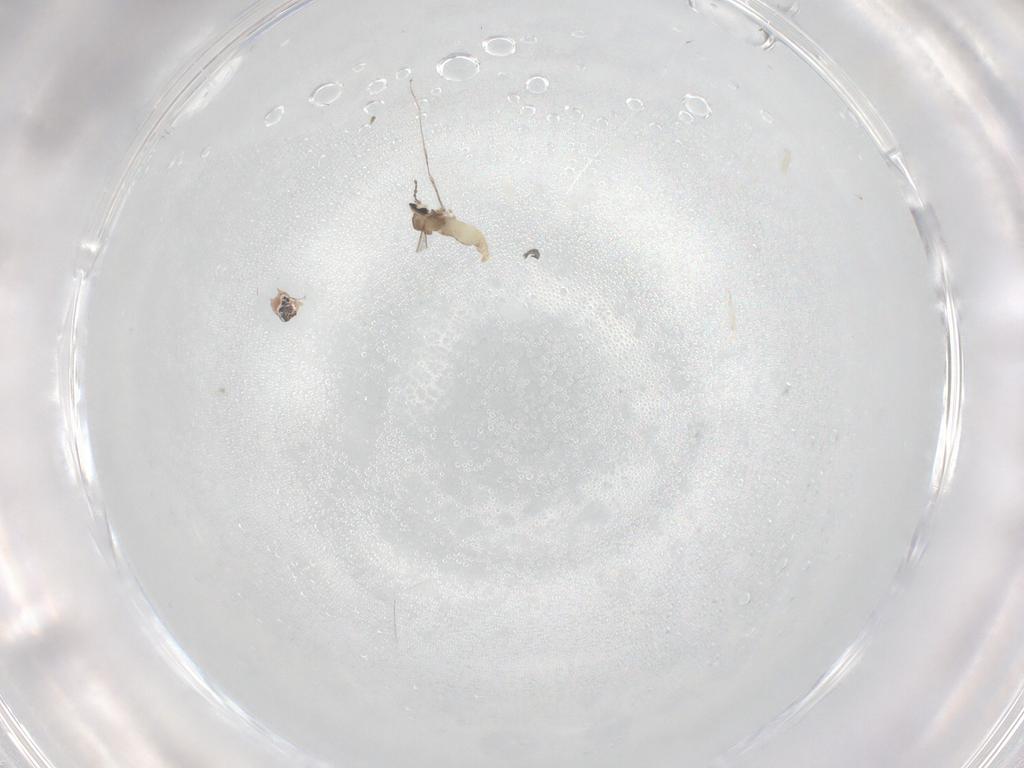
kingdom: Animalia
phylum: Arthropoda
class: Insecta
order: Diptera
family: Cecidomyiidae
